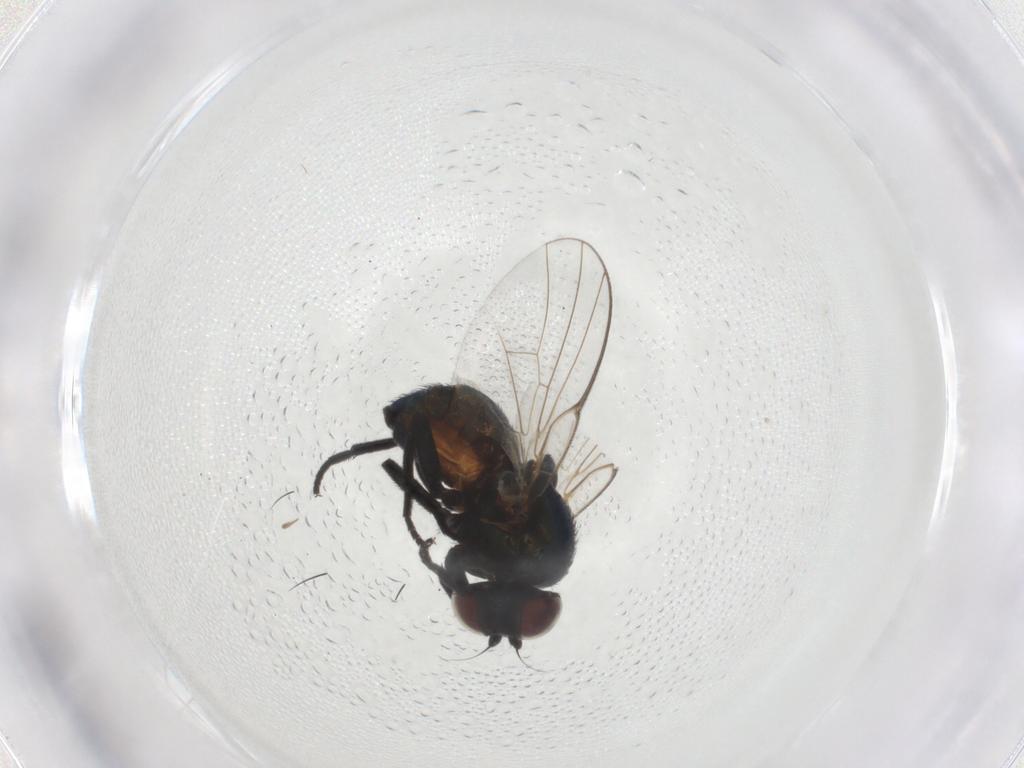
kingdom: Animalia
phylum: Arthropoda
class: Insecta
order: Diptera
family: Agromyzidae
